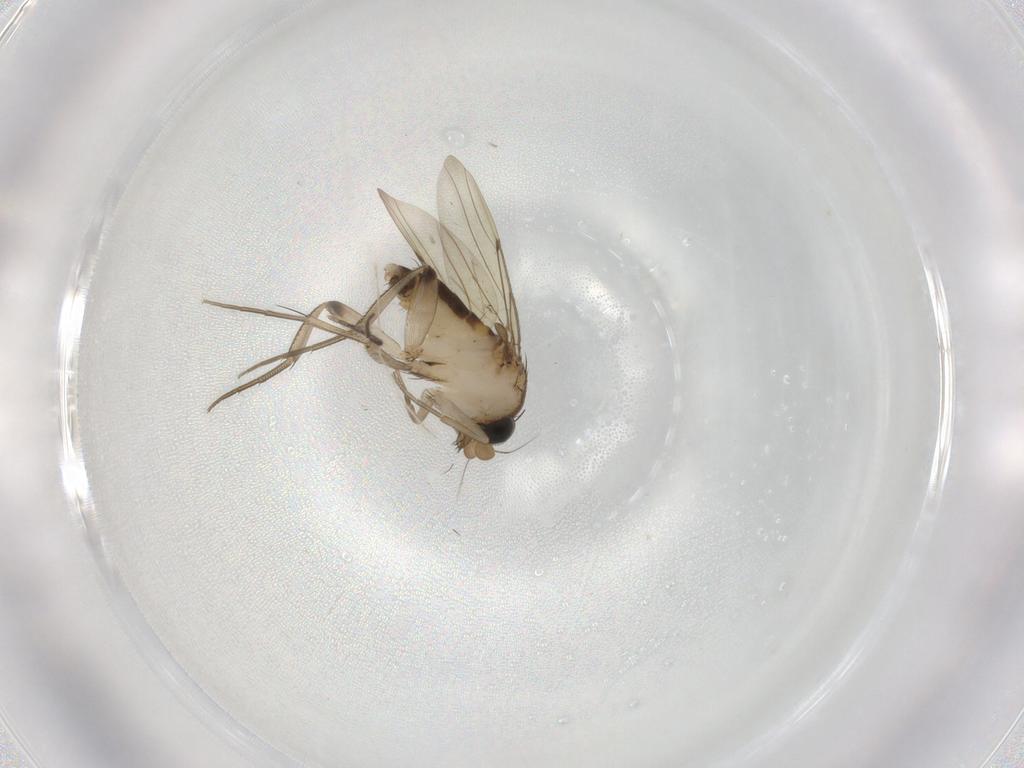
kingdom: Animalia
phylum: Arthropoda
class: Insecta
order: Diptera
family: Sciaridae
